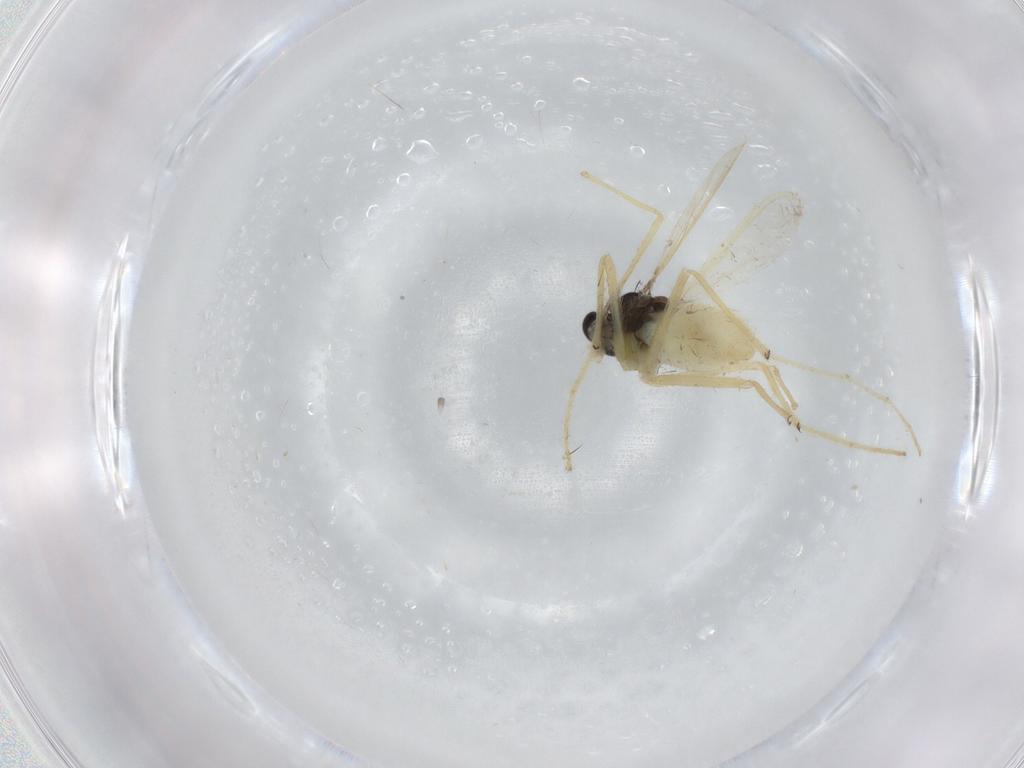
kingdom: Animalia
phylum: Arthropoda
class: Insecta
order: Diptera
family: Chironomidae
